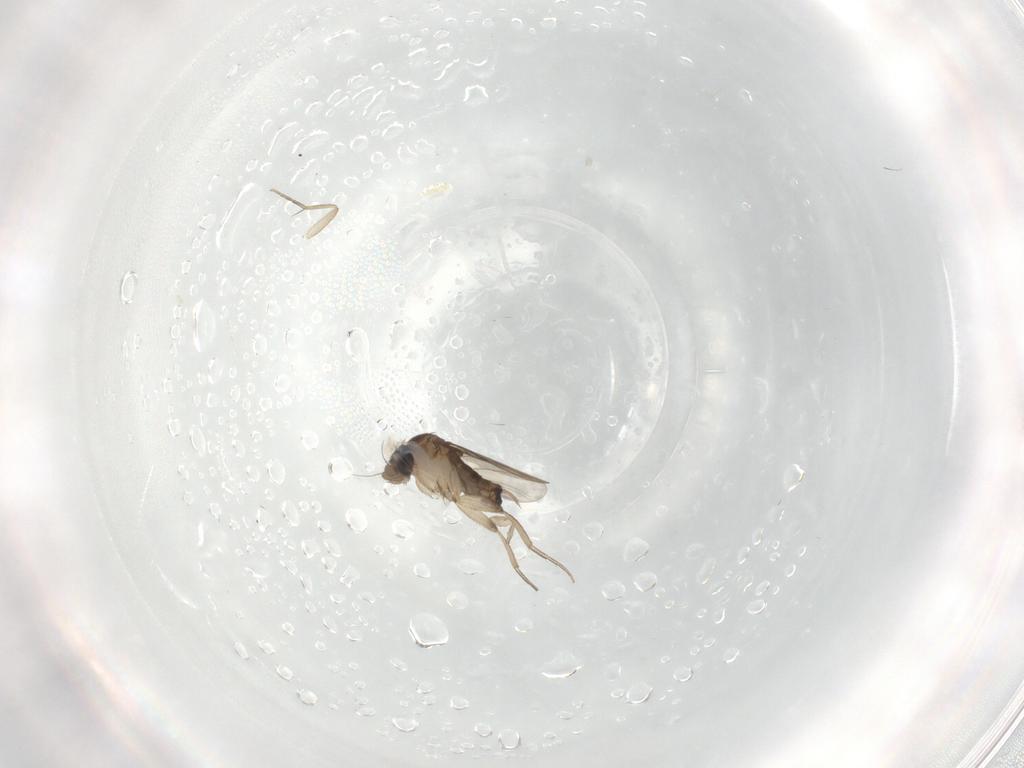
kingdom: Animalia
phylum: Arthropoda
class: Insecta
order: Diptera
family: Phoridae
